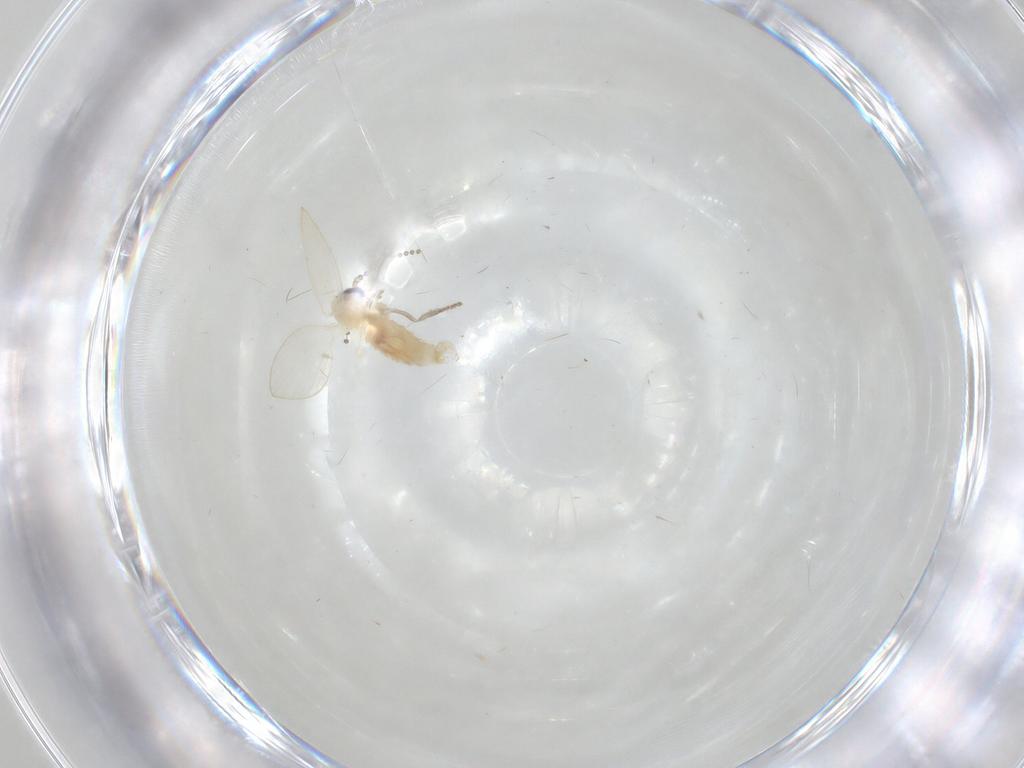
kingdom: Animalia
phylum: Arthropoda
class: Insecta
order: Diptera
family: Psychodidae
